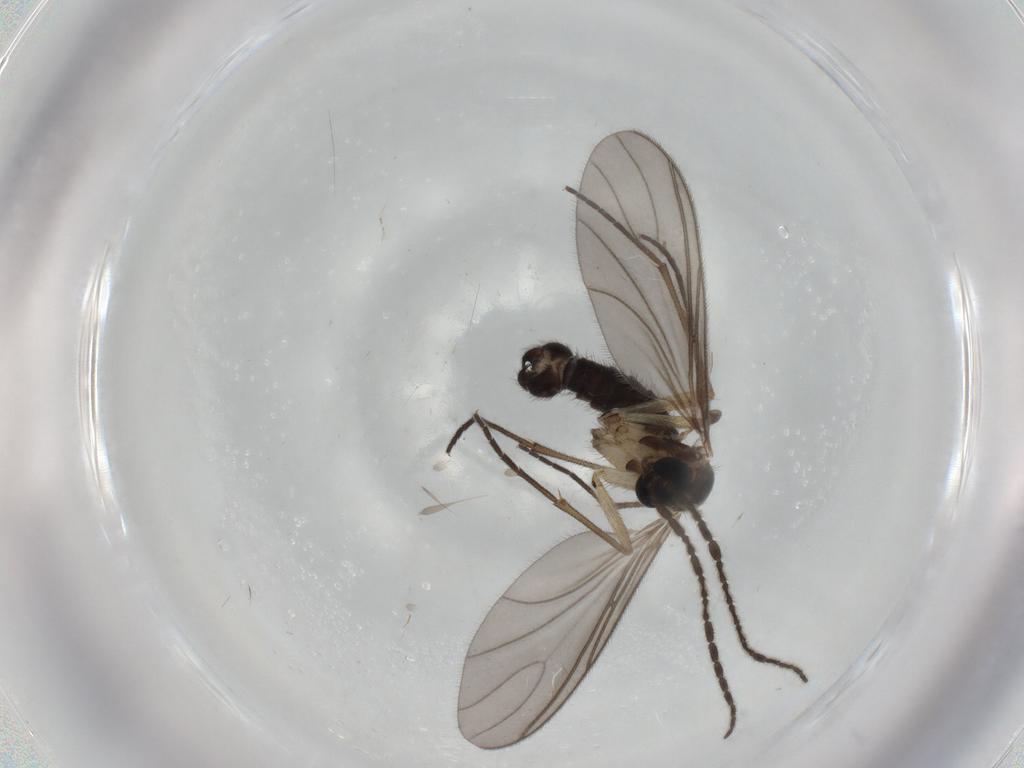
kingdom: Animalia
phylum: Arthropoda
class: Insecta
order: Diptera
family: Sciaridae
